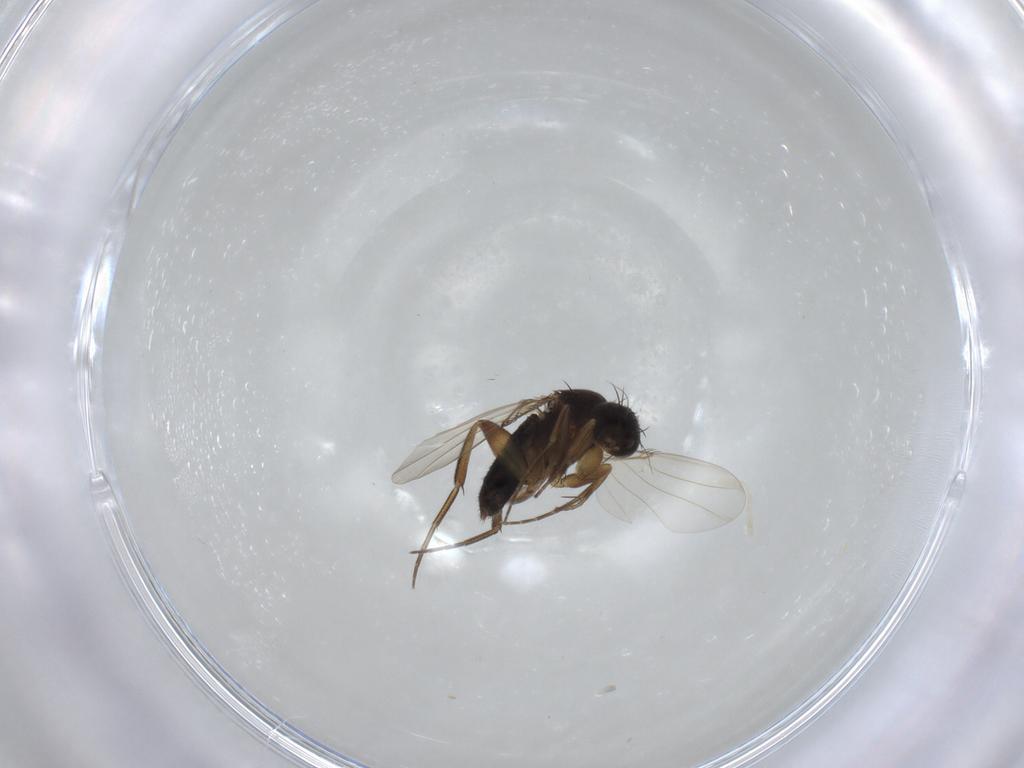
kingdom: Animalia
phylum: Arthropoda
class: Insecta
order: Diptera
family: Phoridae
